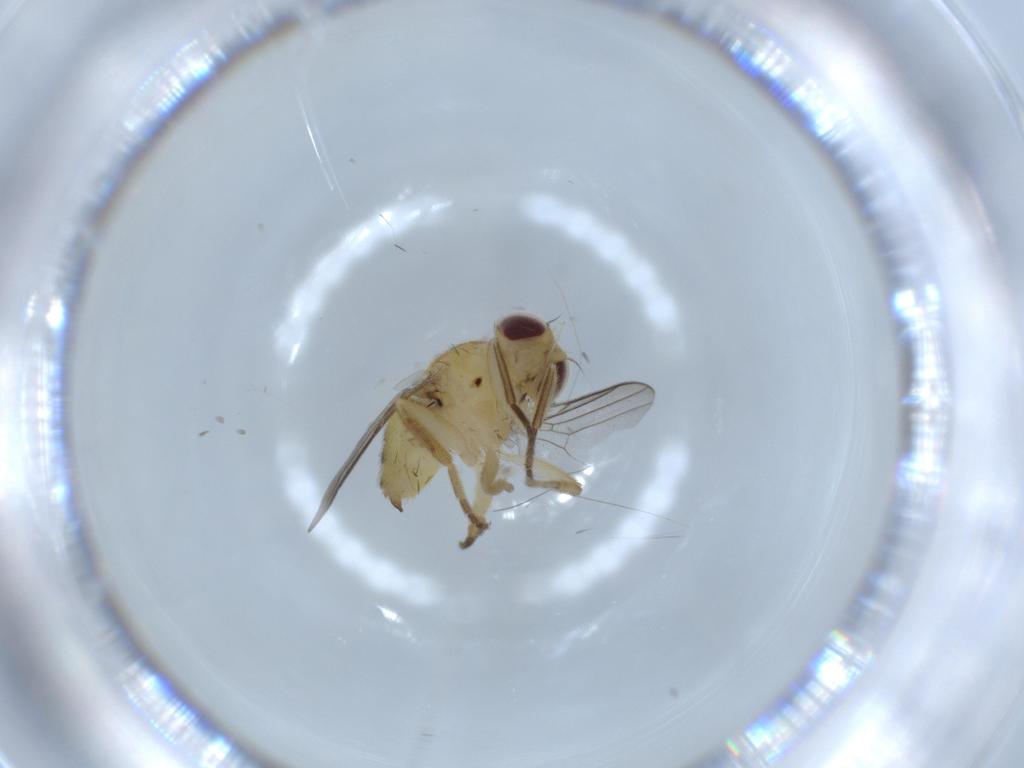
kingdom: Animalia
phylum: Arthropoda
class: Insecta
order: Diptera
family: Chloropidae
